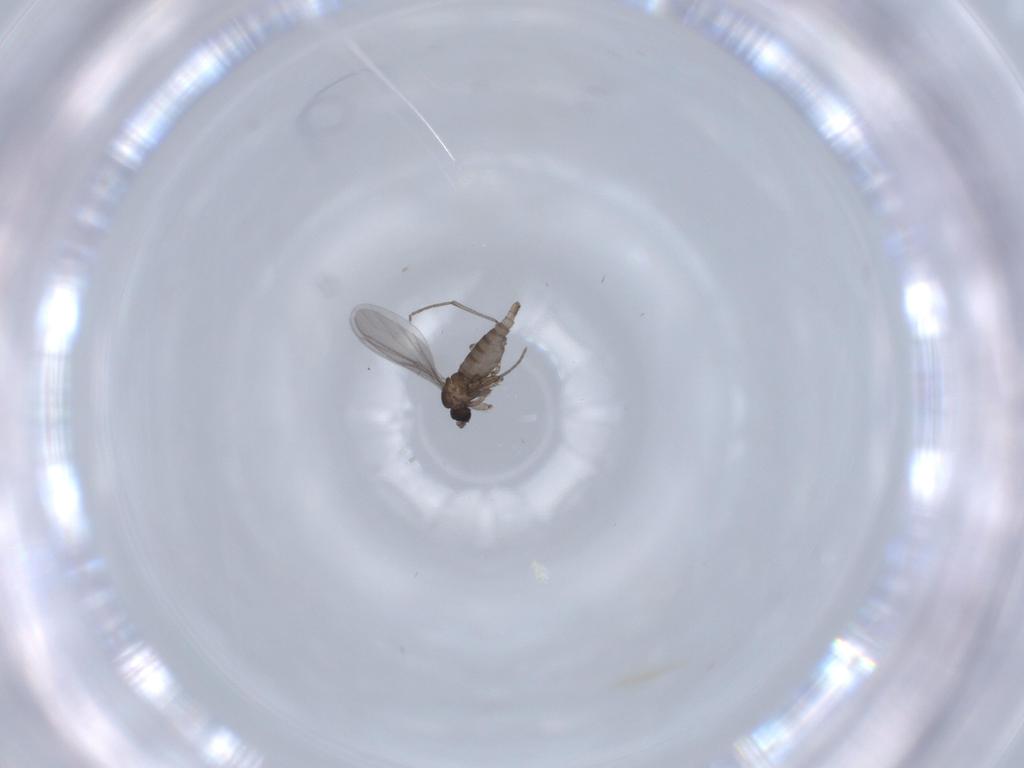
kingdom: Animalia
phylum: Arthropoda
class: Insecta
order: Diptera
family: Sciaridae
